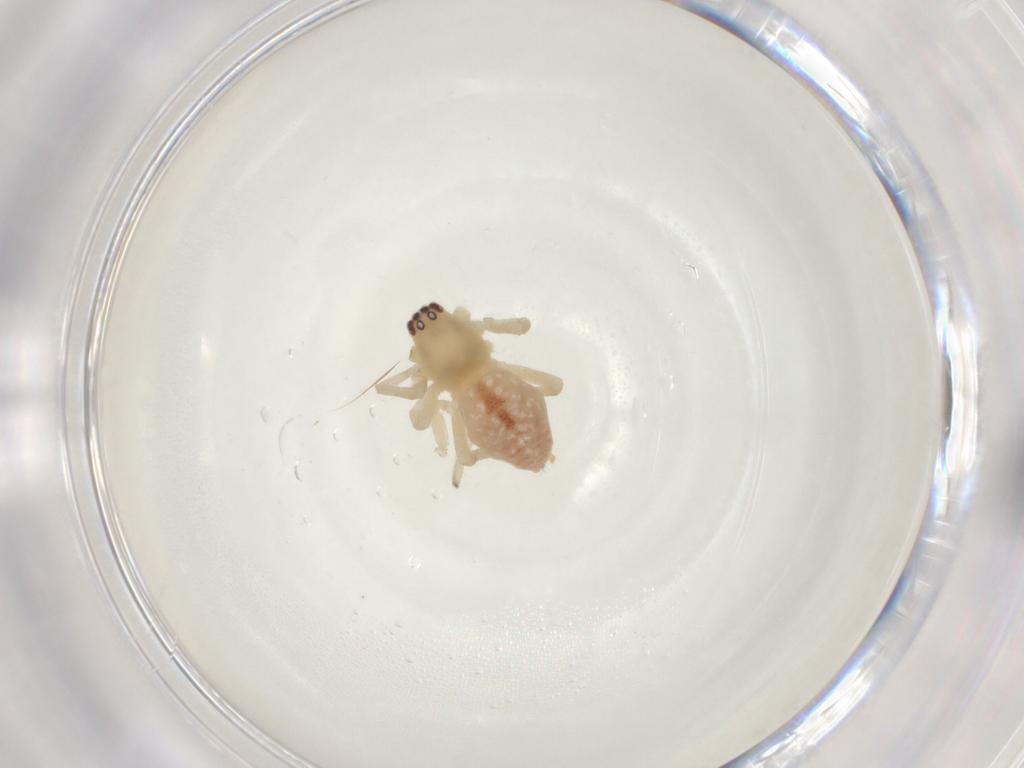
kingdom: Animalia
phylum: Arthropoda
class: Arachnida
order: Araneae
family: Cheiracanthiidae
